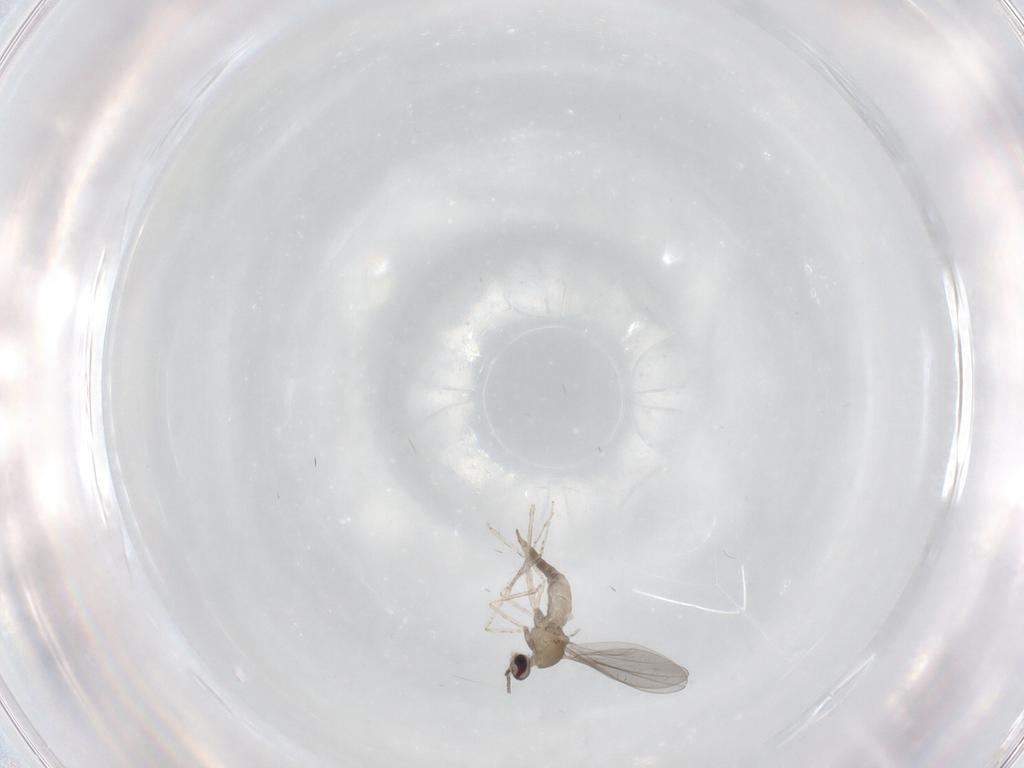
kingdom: Animalia
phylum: Arthropoda
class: Insecta
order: Diptera
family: Cecidomyiidae
